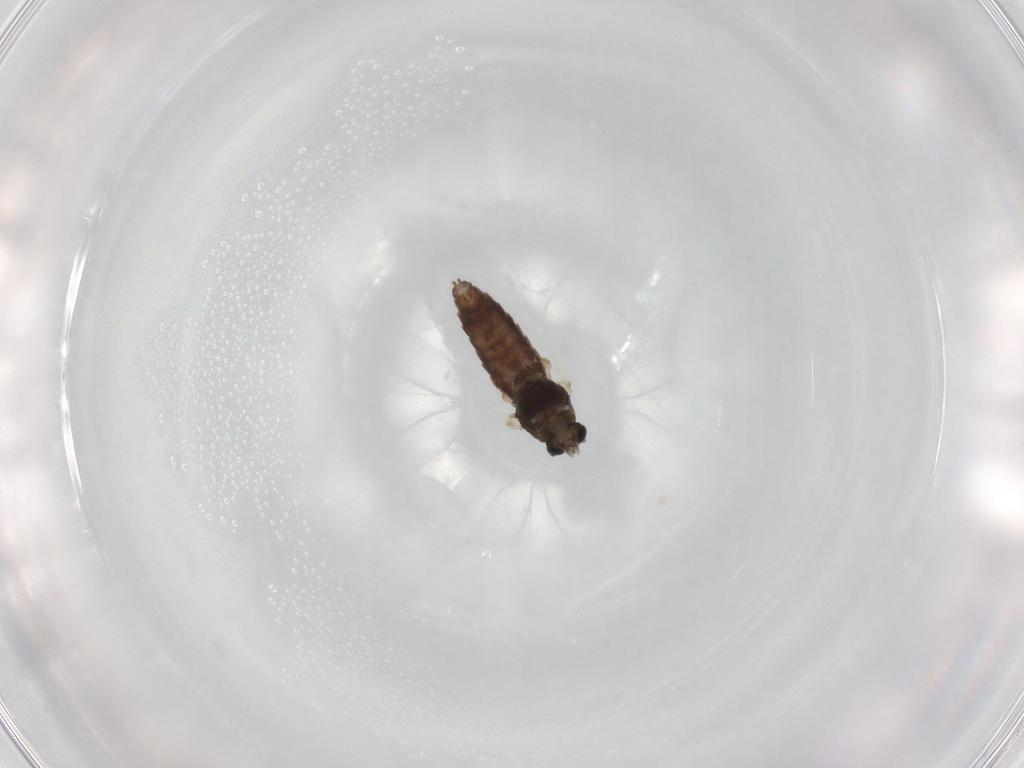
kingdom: Animalia
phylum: Arthropoda
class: Insecta
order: Diptera
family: Chironomidae
